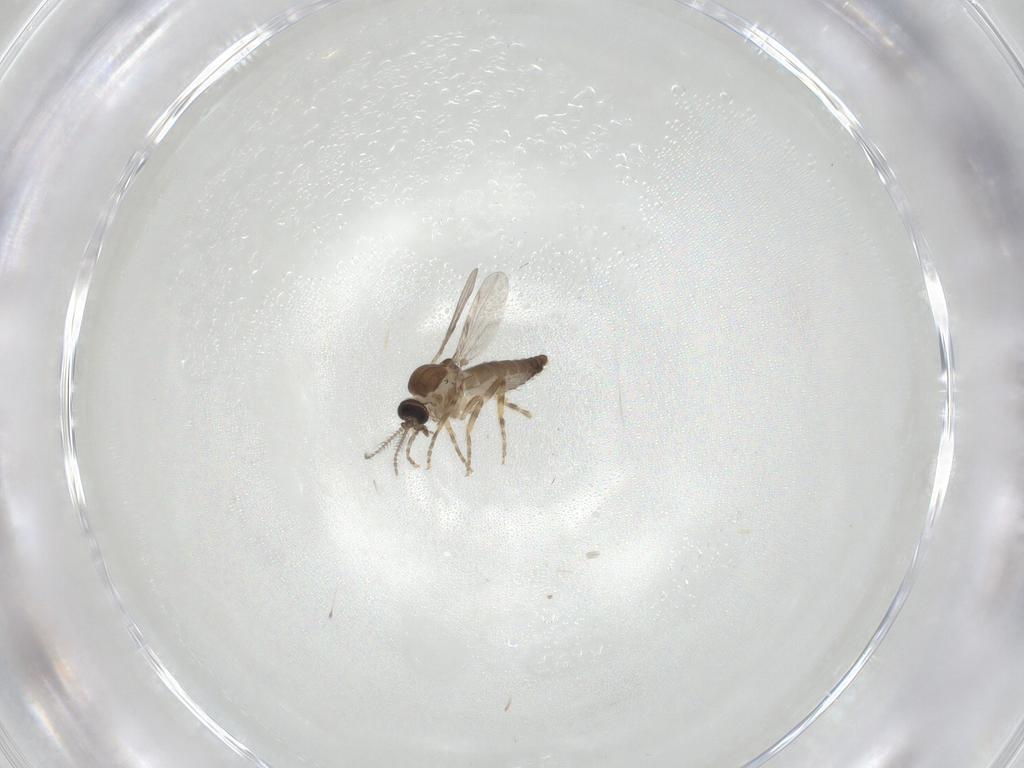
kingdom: Animalia
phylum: Arthropoda
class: Insecta
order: Diptera
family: Ceratopogonidae
